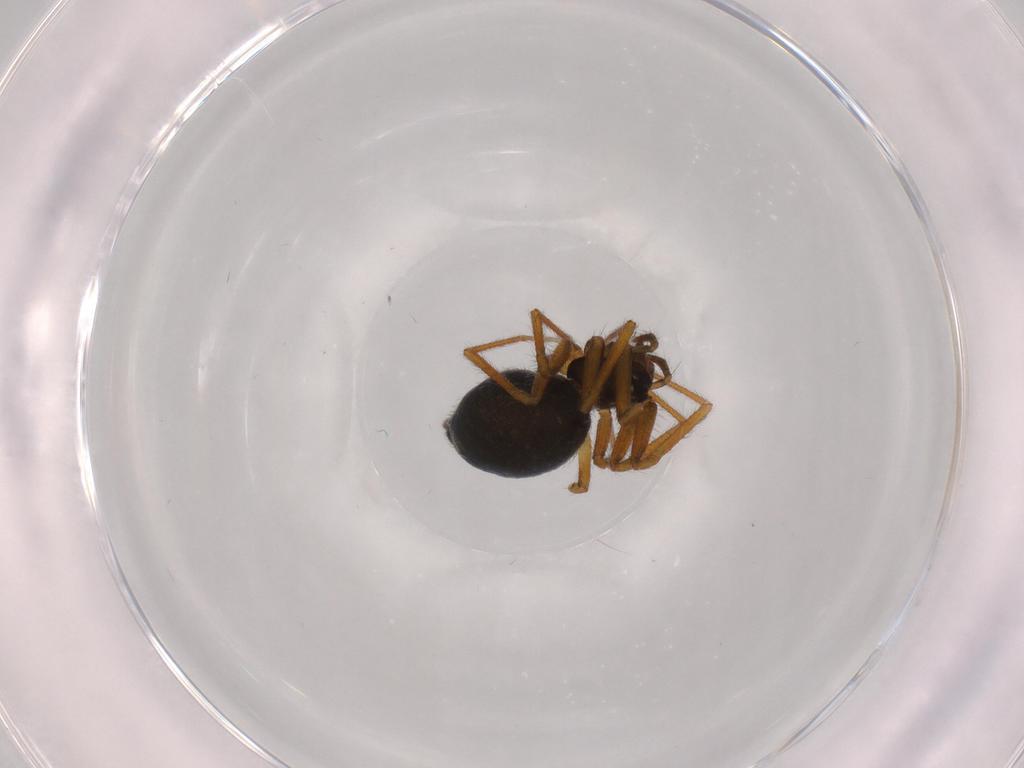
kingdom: Animalia
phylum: Arthropoda
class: Arachnida
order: Araneae
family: Linyphiidae
